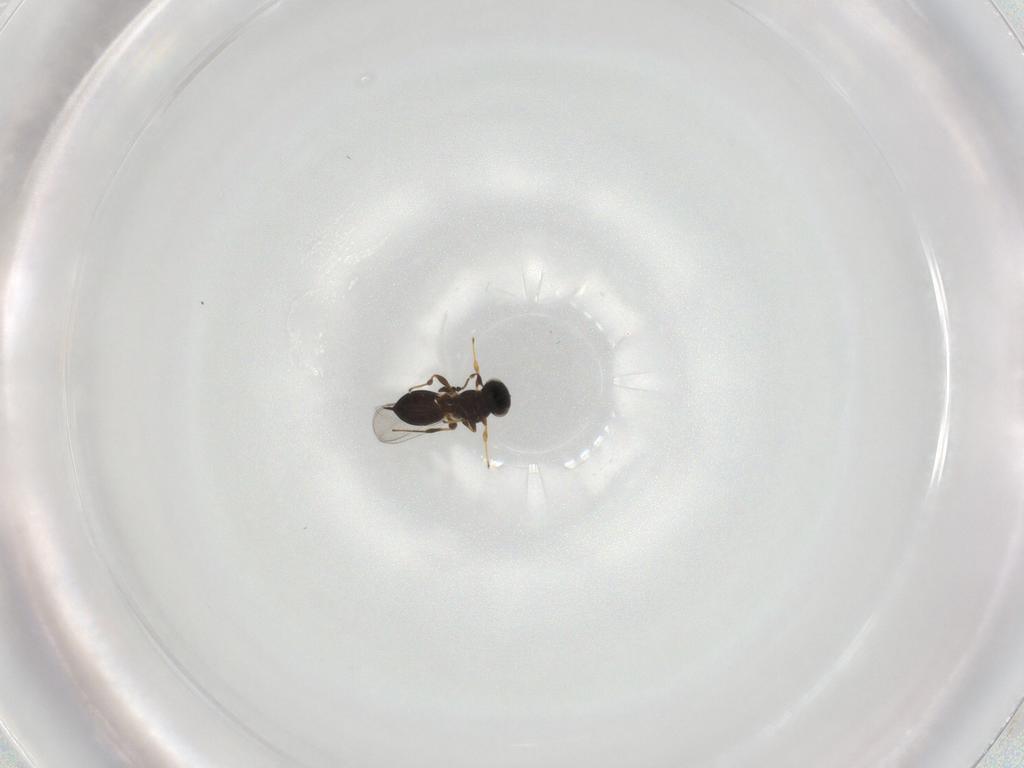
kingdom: Animalia
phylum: Arthropoda
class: Insecta
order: Hymenoptera
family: Platygastridae
